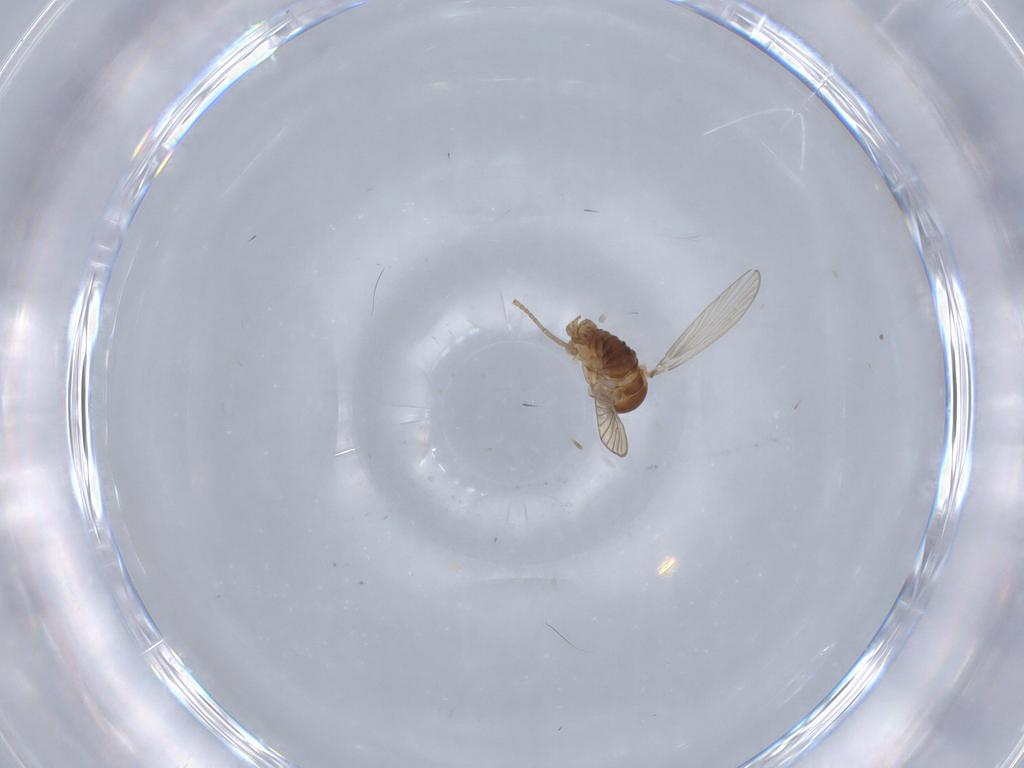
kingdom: Animalia
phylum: Arthropoda
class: Insecta
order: Diptera
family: Psychodidae
